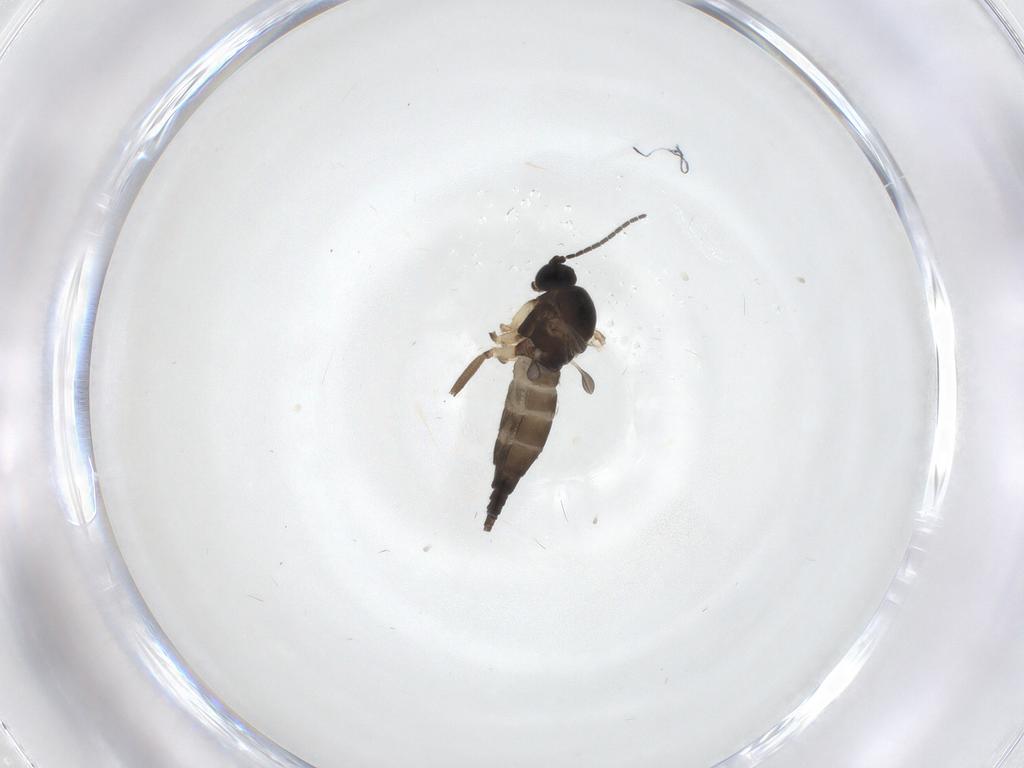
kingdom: Animalia
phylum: Arthropoda
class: Insecta
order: Diptera
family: Sciaridae
